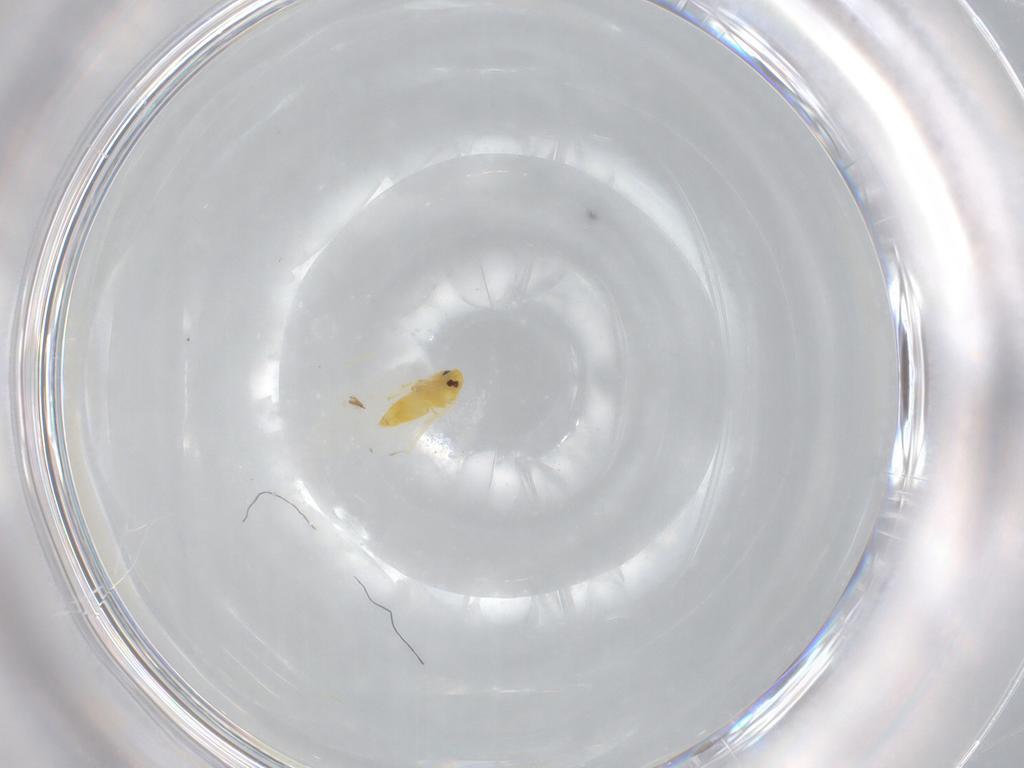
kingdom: Animalia
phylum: Arthropoda
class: Insecta
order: Hemiptera
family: Aleyrodidae
